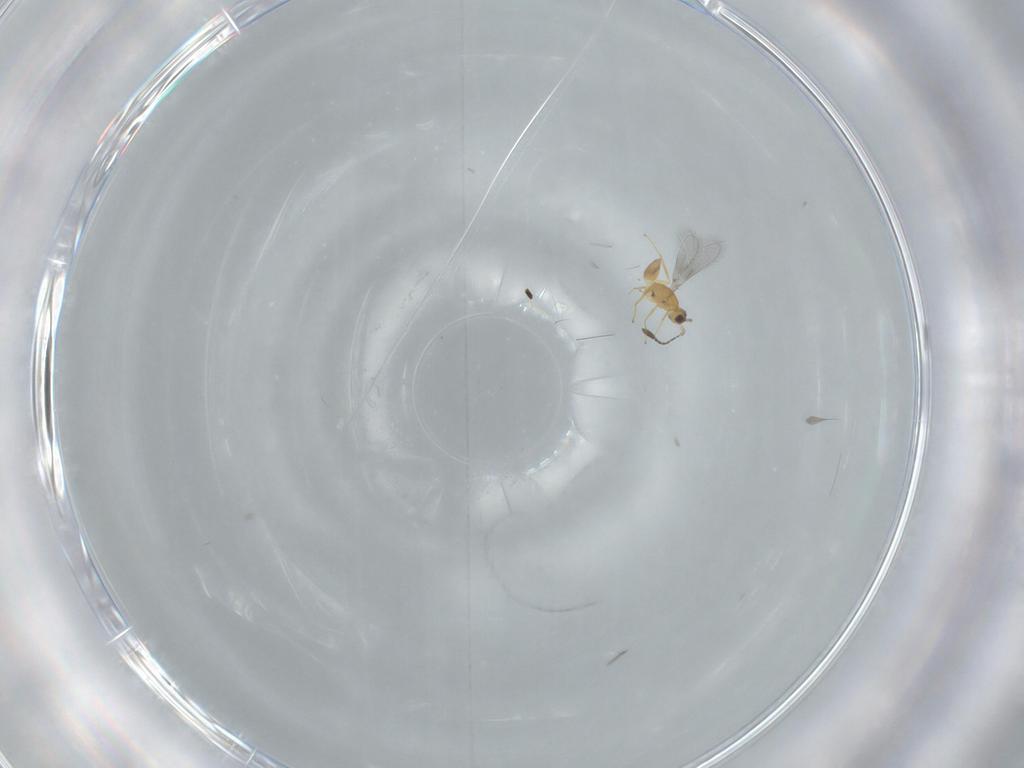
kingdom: Animalia
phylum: Arthropoda
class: Insecta
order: Hymenoptera
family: Mymaridae
